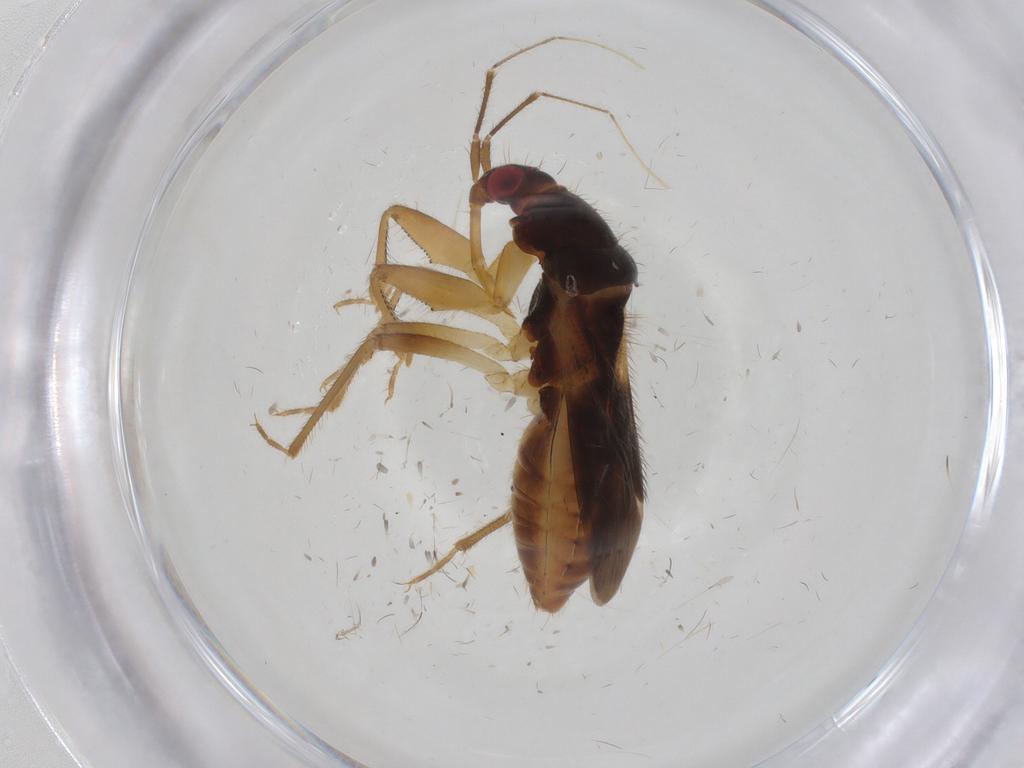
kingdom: Animalia
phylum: Arthropoda
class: Insecta
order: Hemiptera
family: Nabidae
